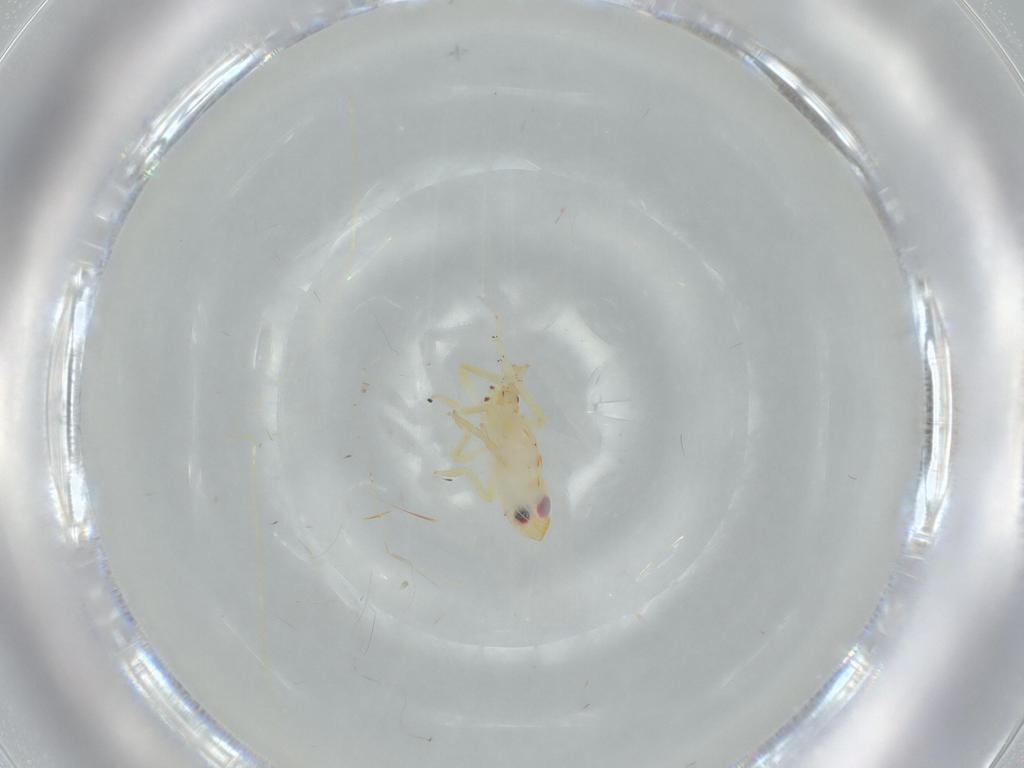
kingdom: Animalia
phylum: Arthropoda
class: Insecta
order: Hemiptera
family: Tropiduchidae
